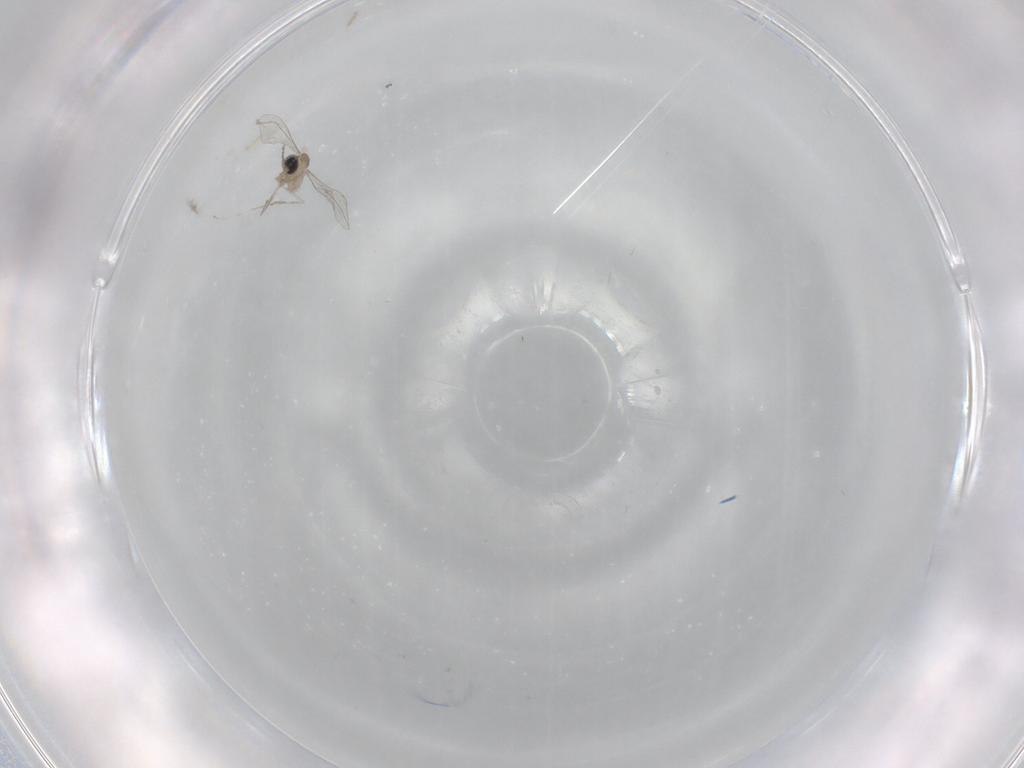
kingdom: Animalia
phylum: Arthropoda
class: Insecta
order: Diptera
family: Cecidomyiidae
